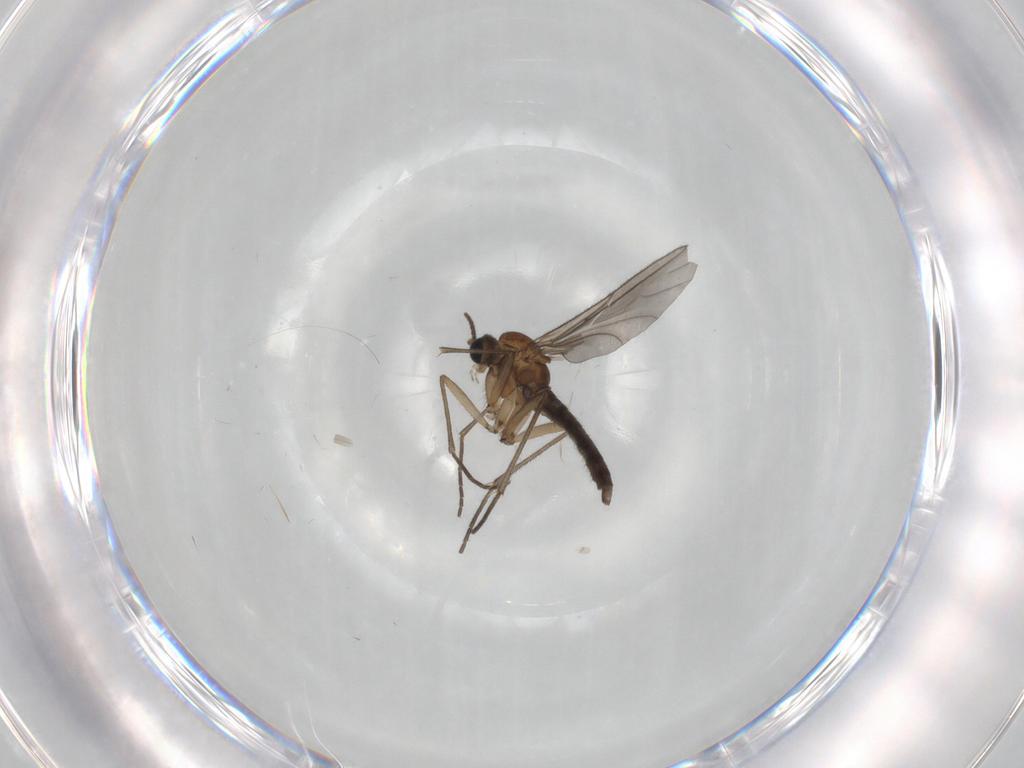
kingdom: Animalia
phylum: Arthropoda
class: Insecta
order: Diptera
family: Sciaridae
